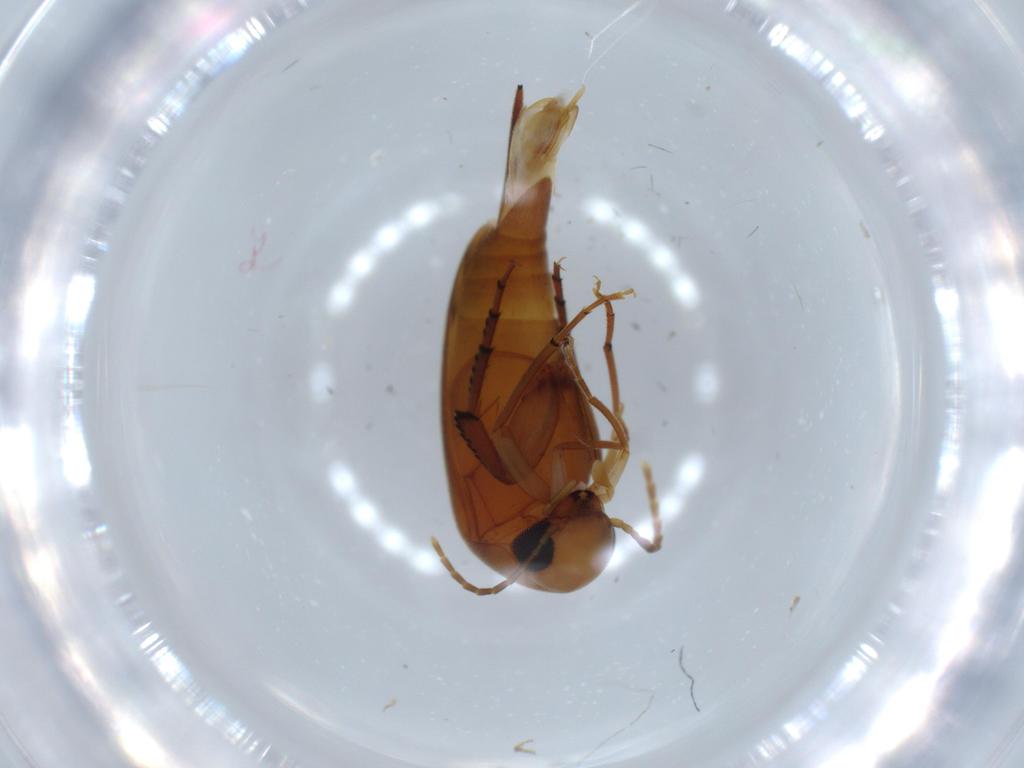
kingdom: Animalia
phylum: Arthropoda
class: Insecta
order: Coleoptera
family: Mordellidae
